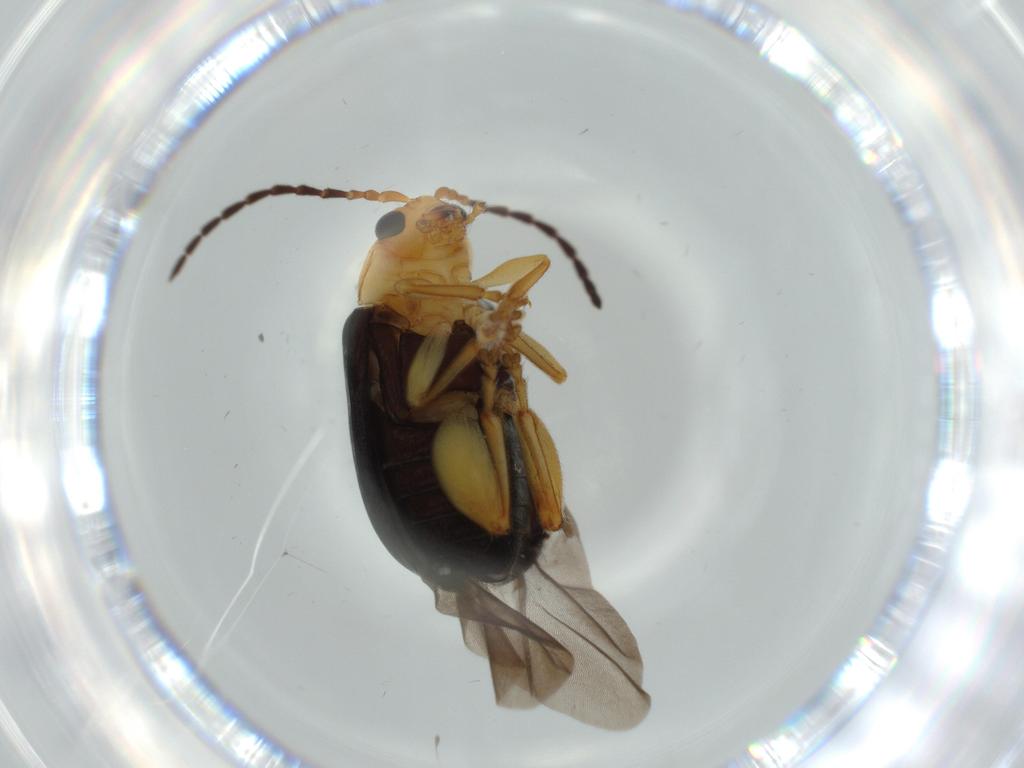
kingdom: Animalia
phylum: Arthropoda
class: Insecta
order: Coleoptera
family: Chrysomelidae
